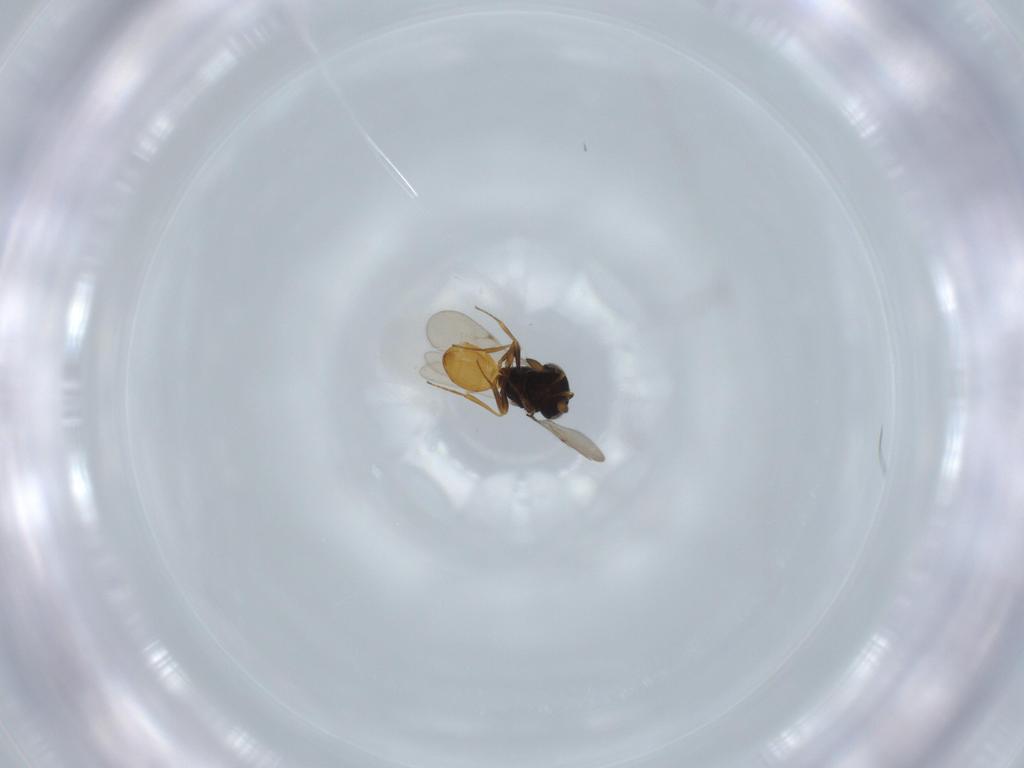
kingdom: Animalia
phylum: Arthropoda
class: Insecta
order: Hymenoptera
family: Scelionidae
